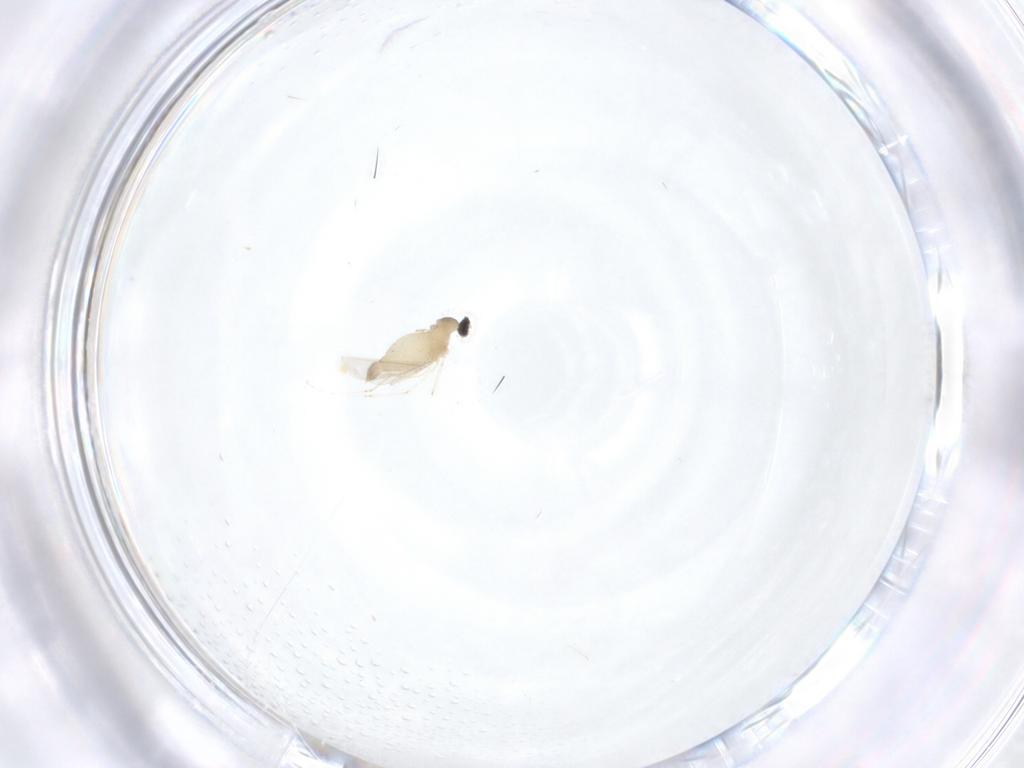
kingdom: Animalia
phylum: Arthropoda
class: Insecta
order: Diptera
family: Cecidomyiidae
